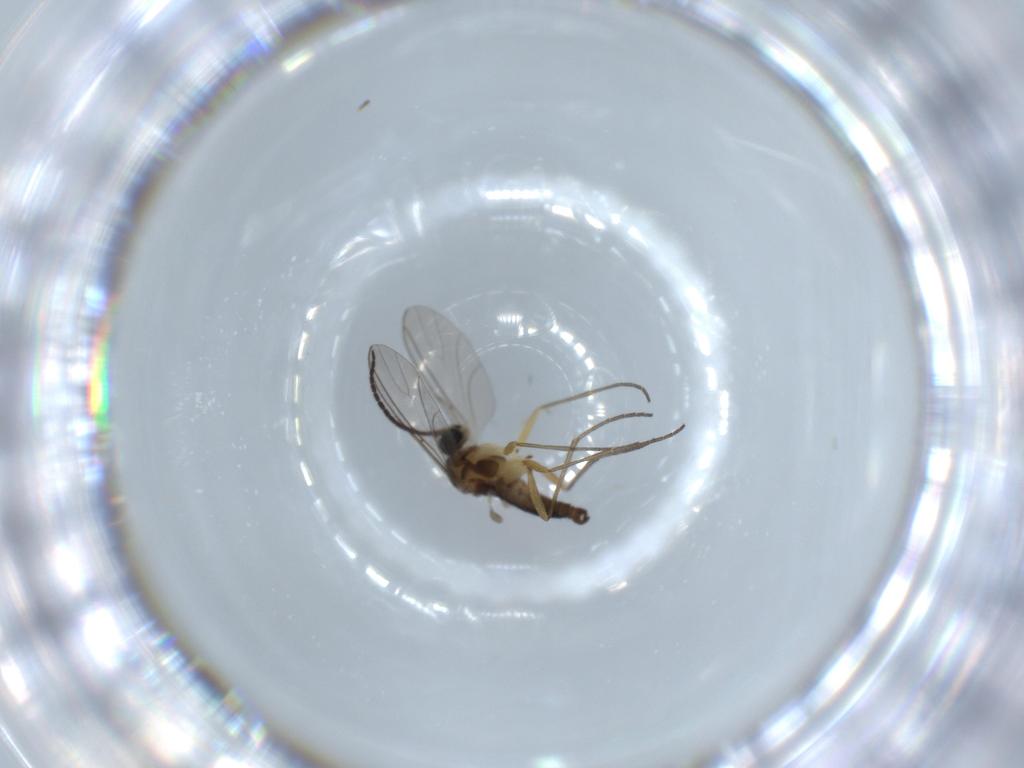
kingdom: Animalia
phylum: Arthropoda
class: Insecta
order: Diptera
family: Sciaridae
